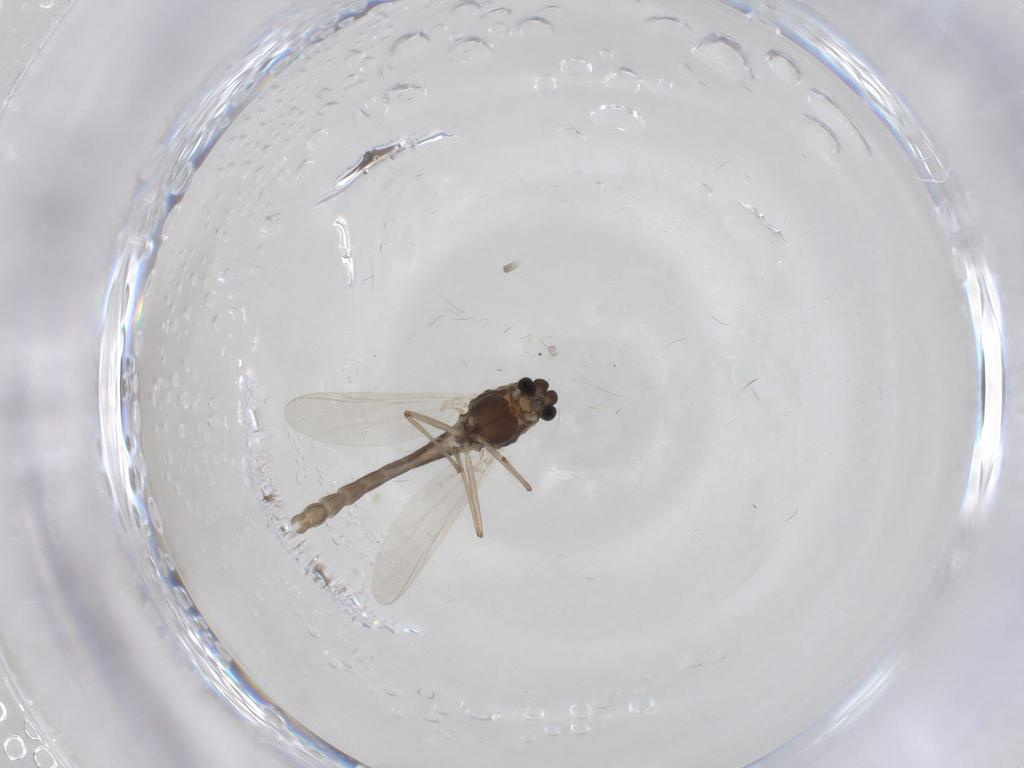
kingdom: Animalia
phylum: Arthropoda
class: Insecta
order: Diptera
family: Chironomidae
